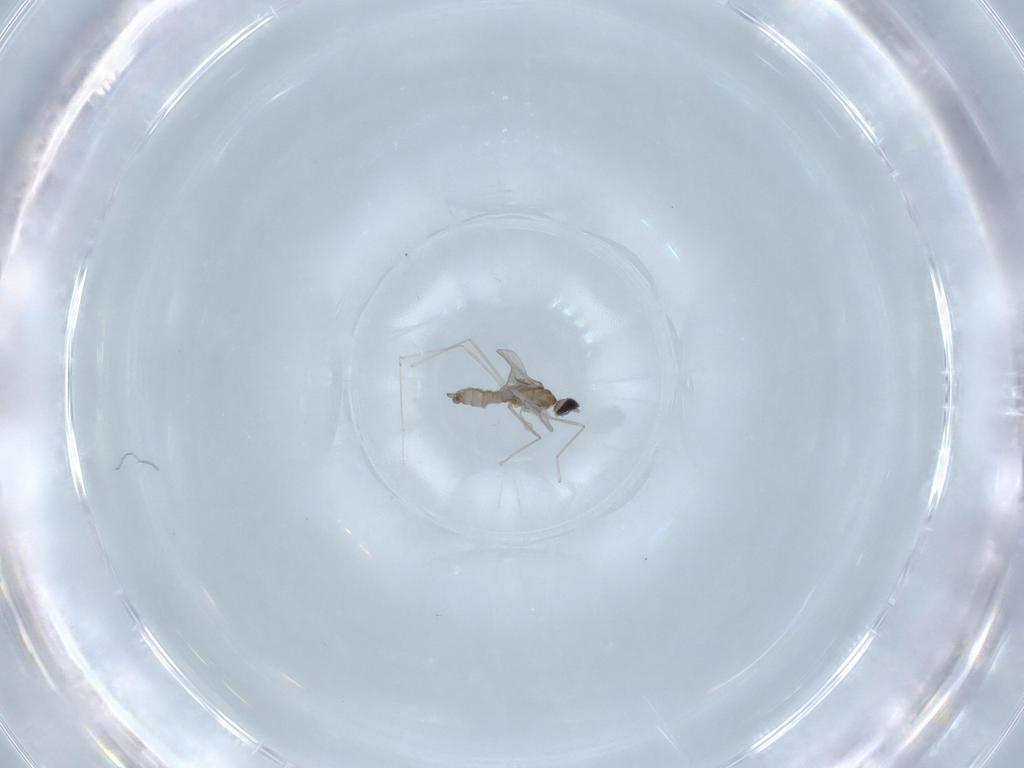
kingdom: Animalia
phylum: Arthropoda
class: Insecta
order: Diptera
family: Cecidomyiidae
